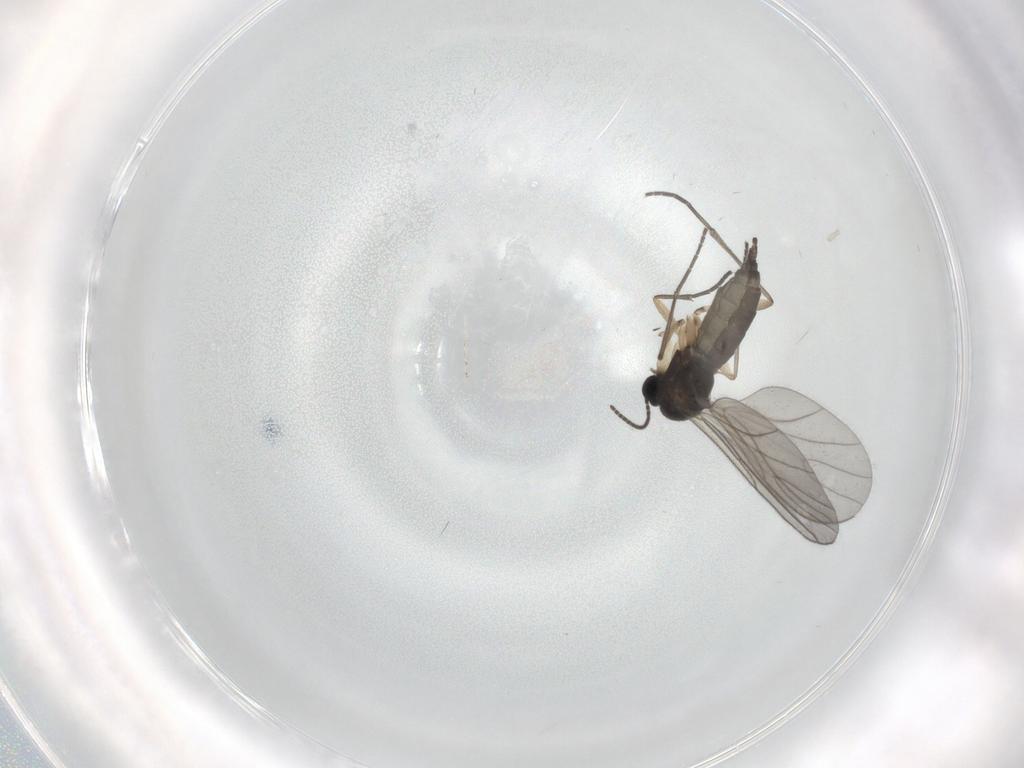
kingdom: Animalia
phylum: Arthropoda
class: Insecta
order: Diptera
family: Sciaridae
